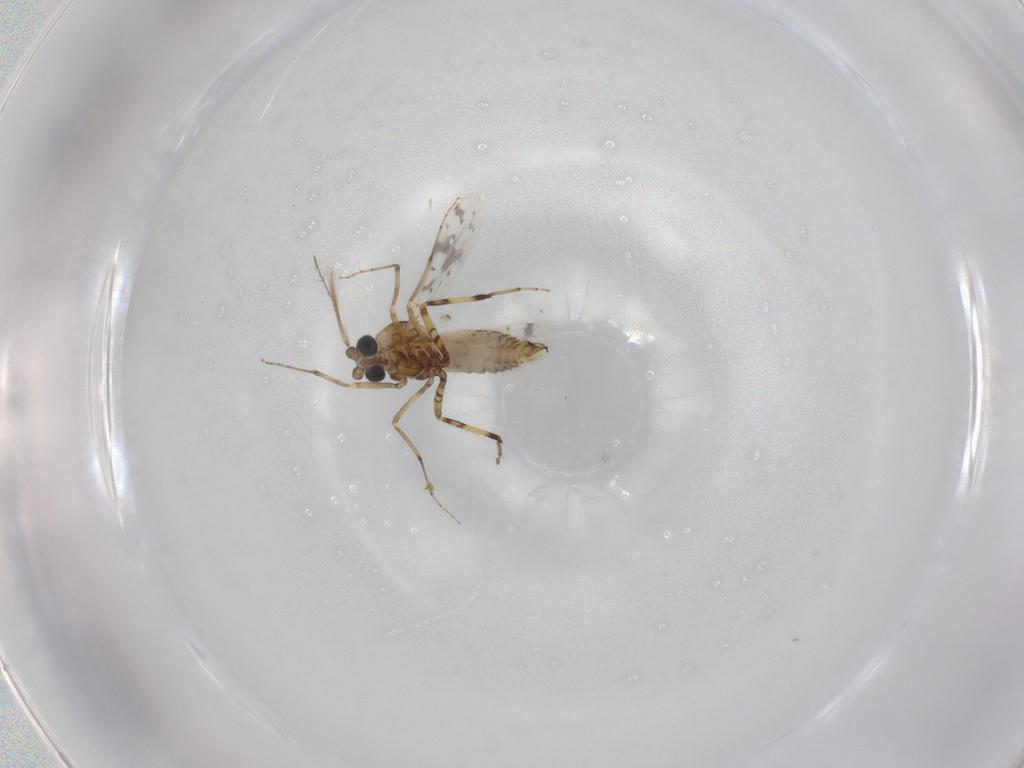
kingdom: Animalia
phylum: Arthropoda
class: Insecta
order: Diptera
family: Ceratopogonidae
